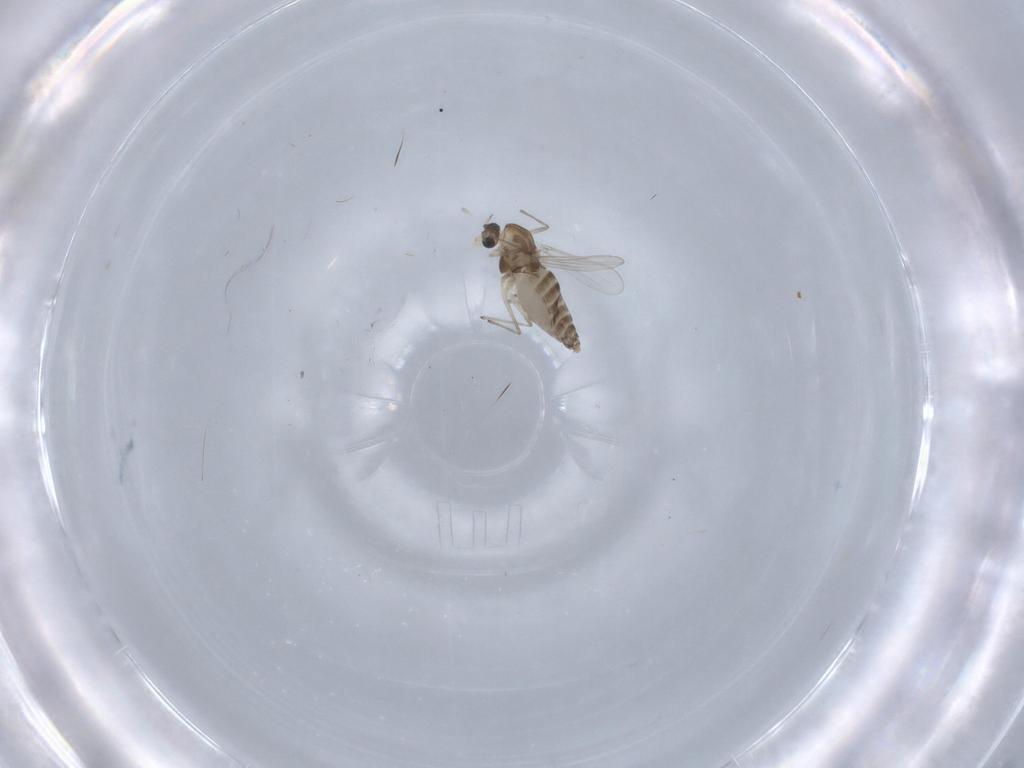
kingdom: Animalia
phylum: Arthropoda
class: Insecta
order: Diptera
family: Chironomidae
